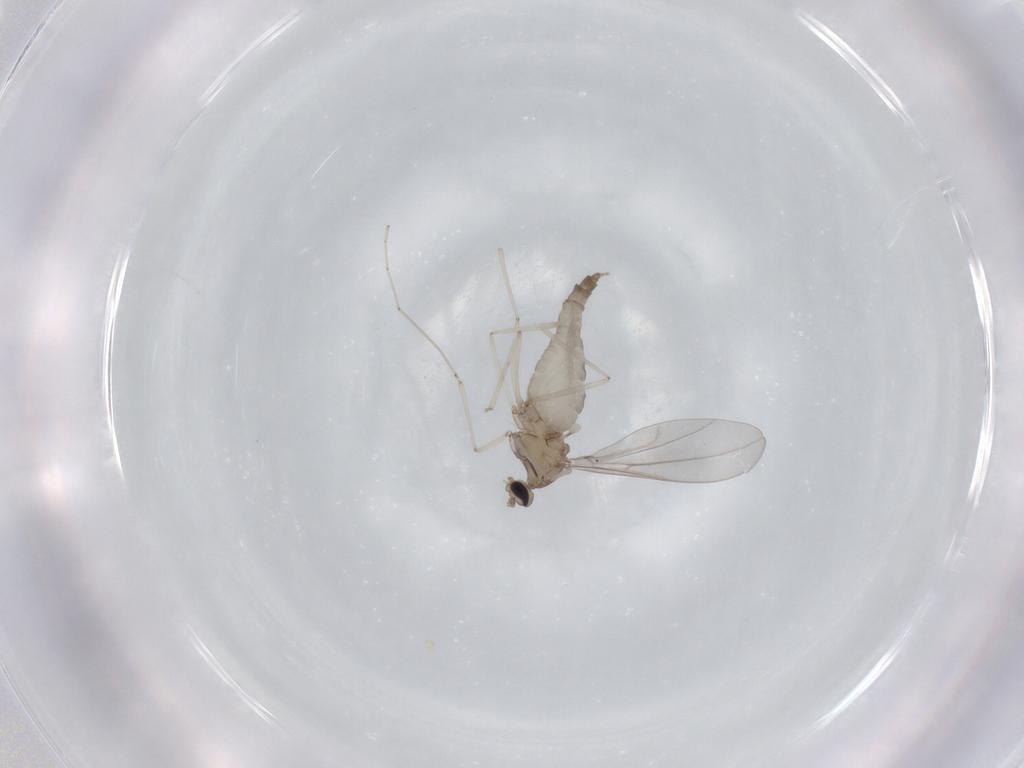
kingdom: Animalia
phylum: Arthropoda
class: Insecta
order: Diptera
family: Cecidomyiidae
